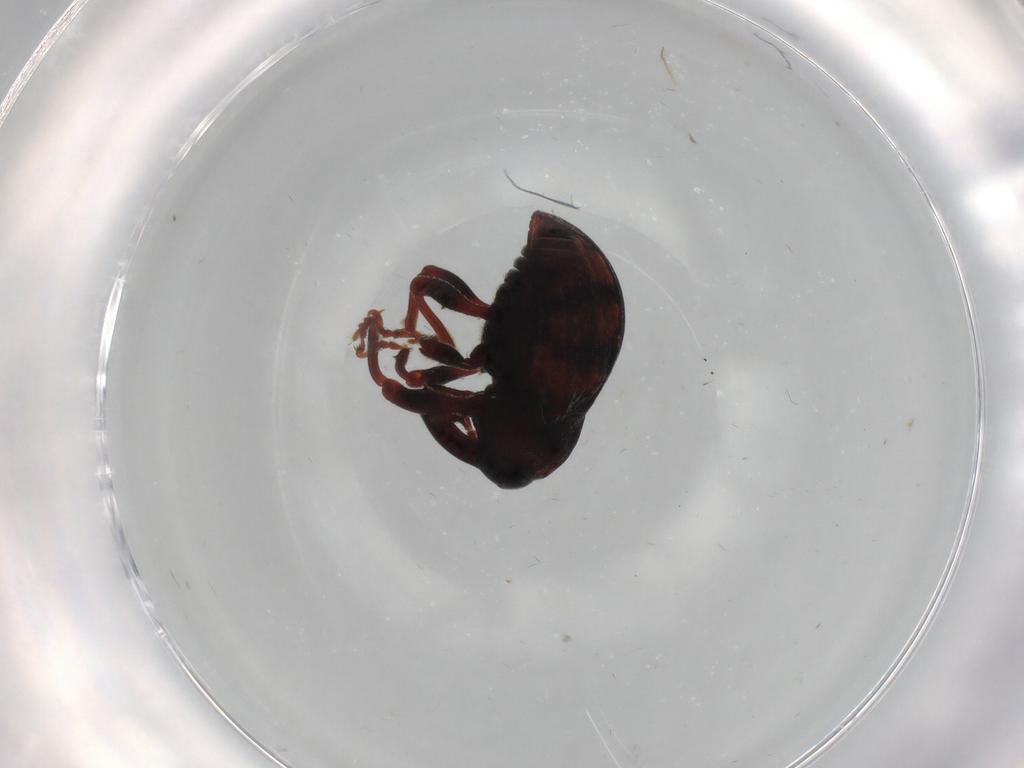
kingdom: Animalia
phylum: Arthropoda
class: Insecta
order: Coleoptera
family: Curculionidae
